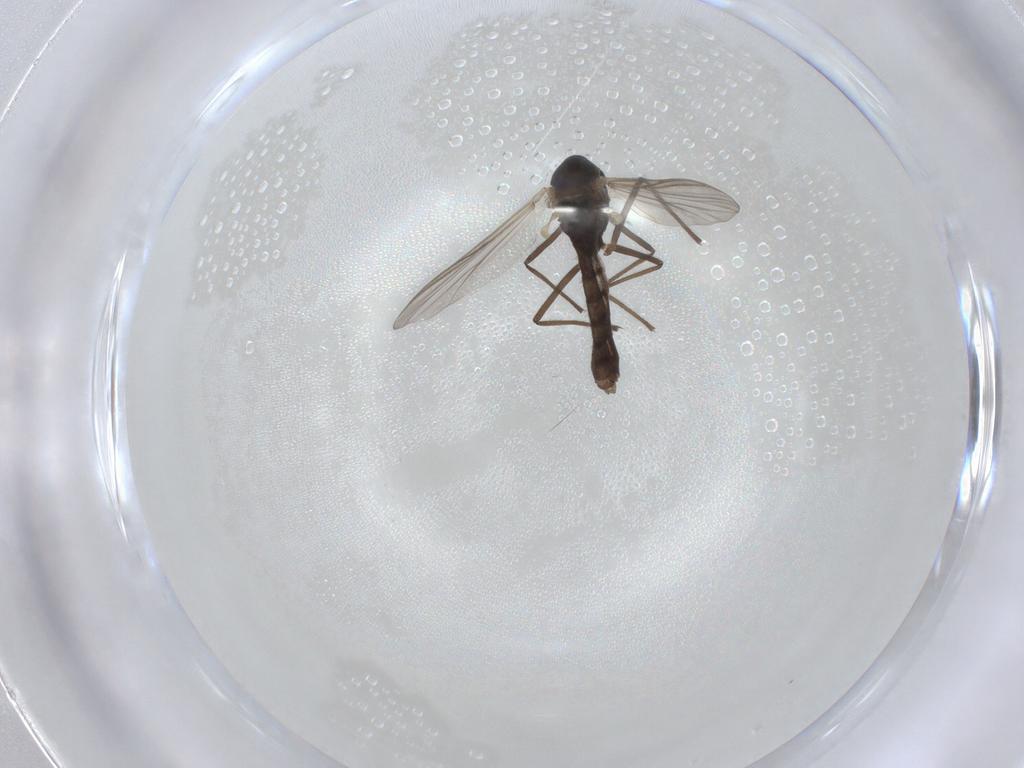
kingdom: Animalia
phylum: Arthropoda
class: Insecta
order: Diptera
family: Chironomidae
